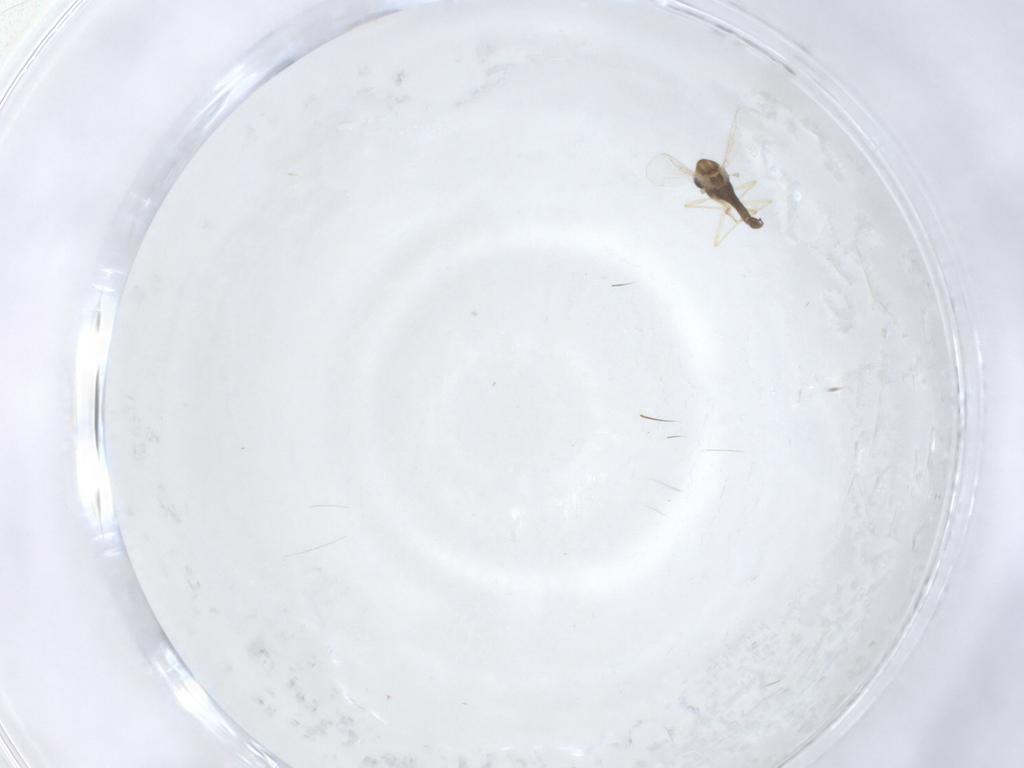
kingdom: Animalia
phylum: Arthropoda
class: Insecta
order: Diptera
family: Chironomidae
